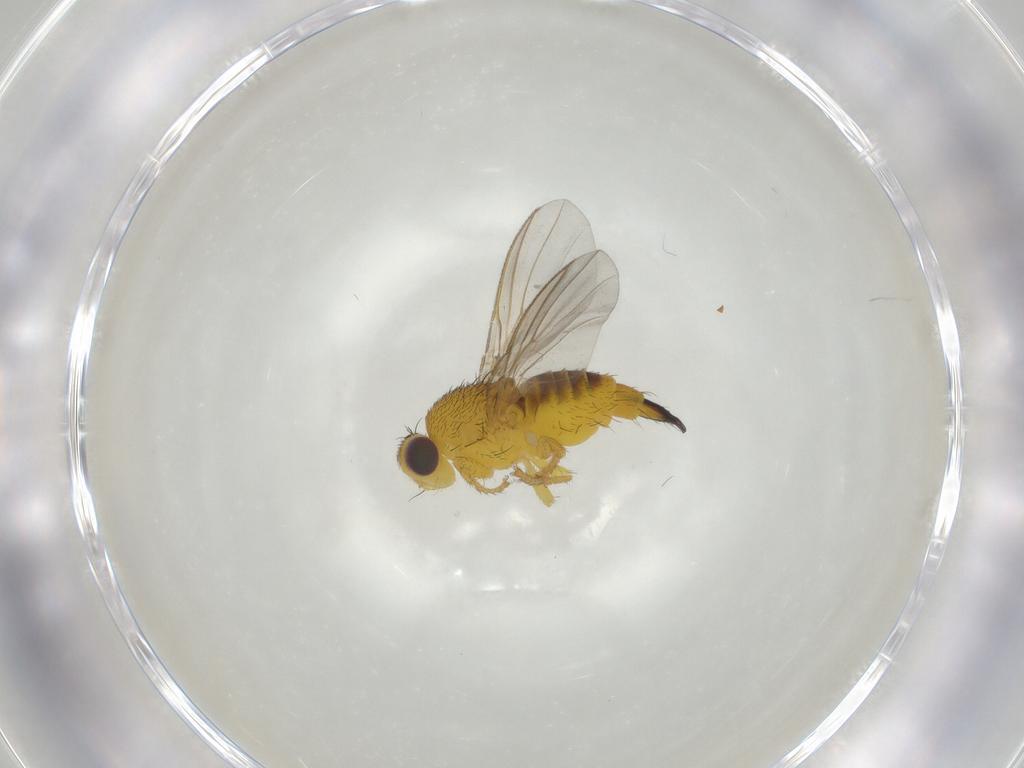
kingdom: Animalia
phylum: Arthropoda
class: Insecta
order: Diptera
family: Fergusoninidae
